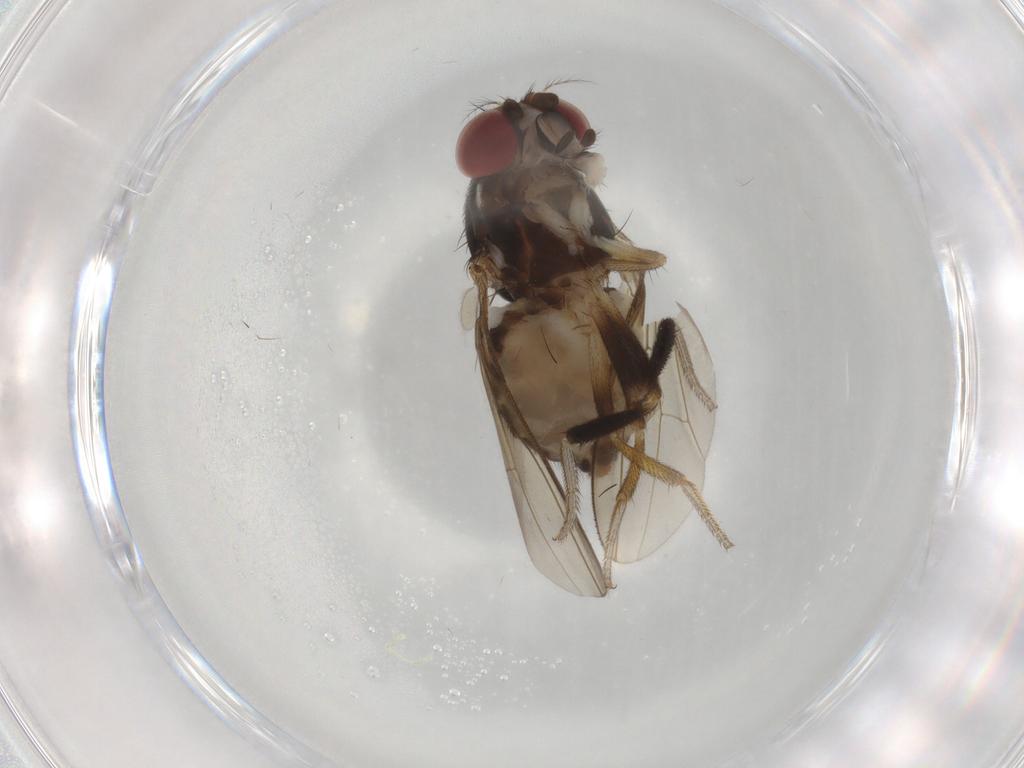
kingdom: Animalia
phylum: Arthropoda
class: Insecta
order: Diptera
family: Drosophilidae
